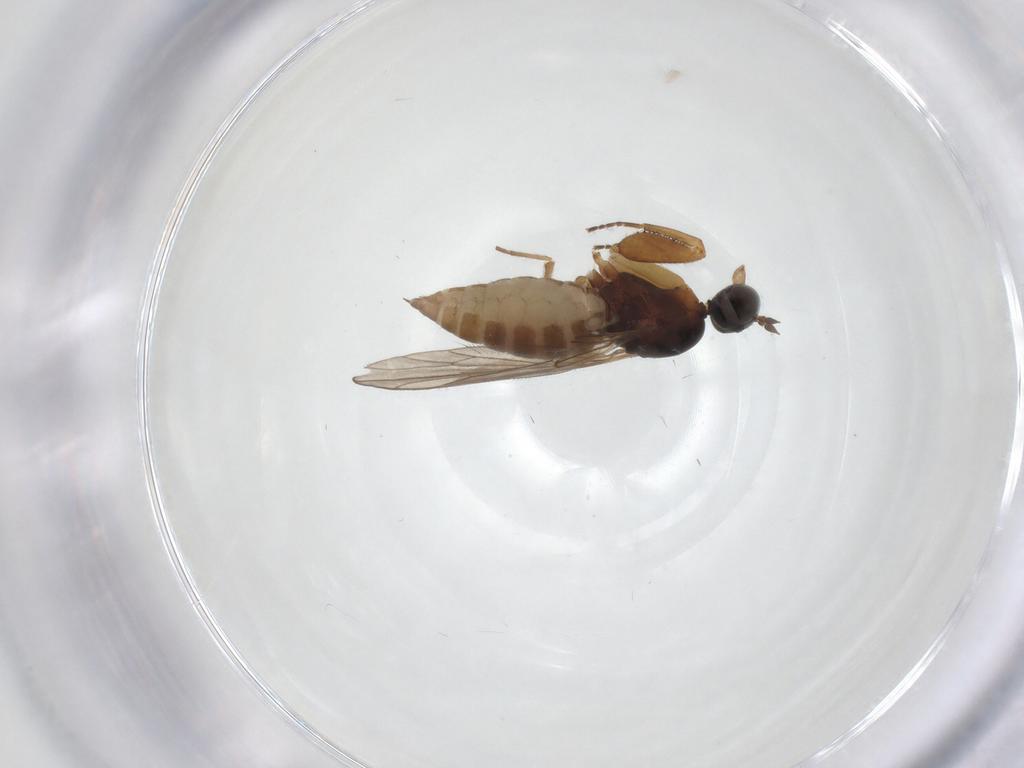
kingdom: Animalia
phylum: Arthropoda
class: Insecta
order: Diptera
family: Empididae
